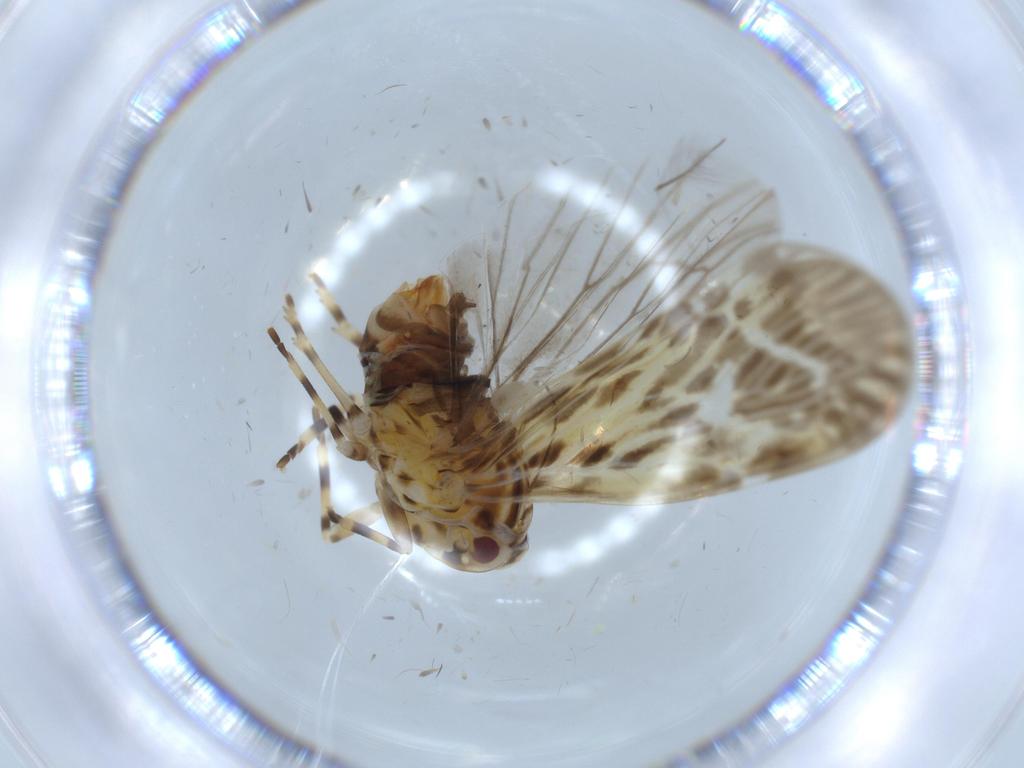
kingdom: Animalia
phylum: Arthropoda
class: Insecta
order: Hemiptera
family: Derbidae
